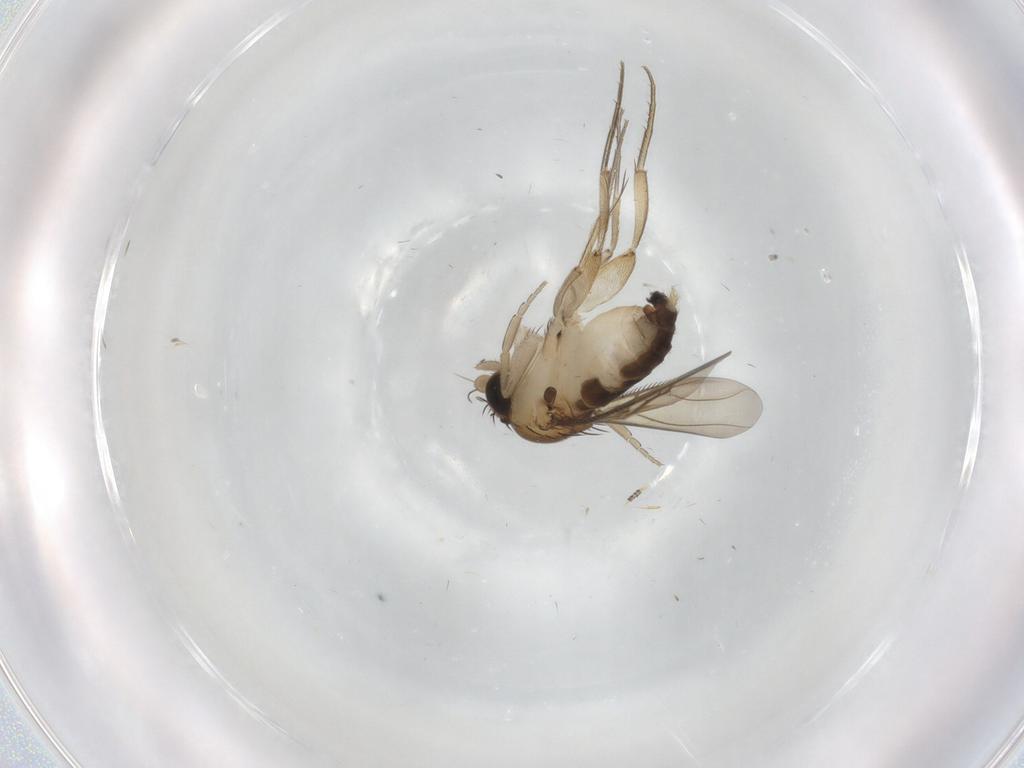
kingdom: Animalia
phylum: Arthropoda
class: Insecta
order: Diptera
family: Phoridae
